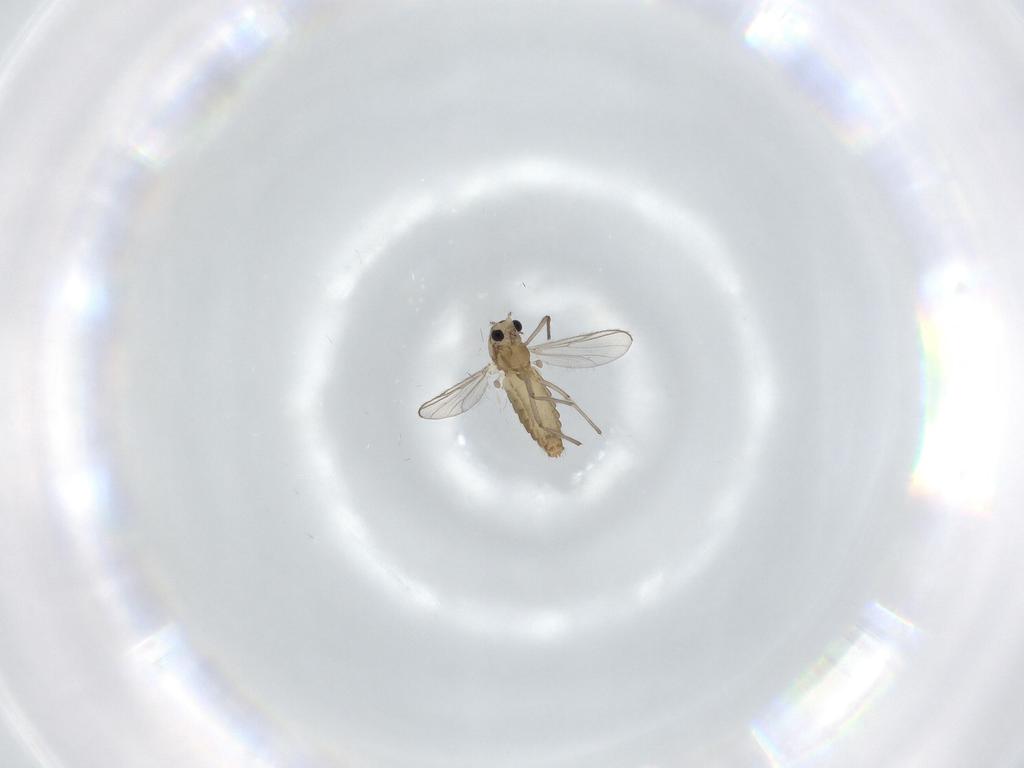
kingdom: Animalia
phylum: Arthropoda
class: Insecta
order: Diptera
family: Chironomidae
